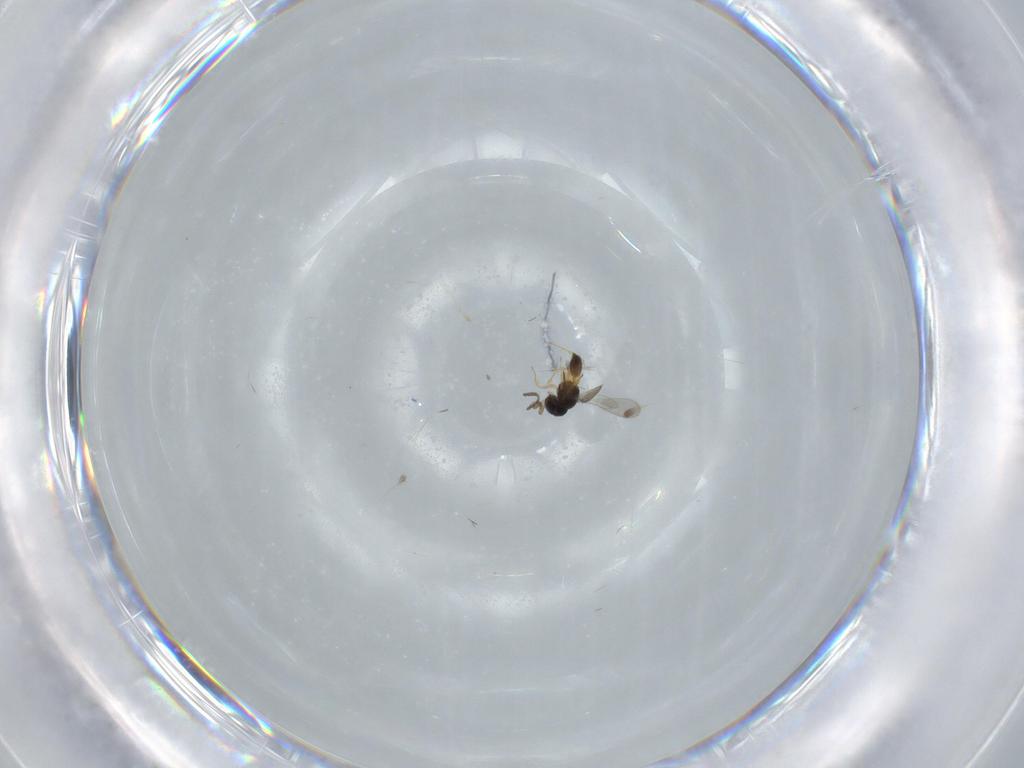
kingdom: Animalia
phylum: Arthropoda
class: Insecta
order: Hymenoptera
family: Scelionidae
